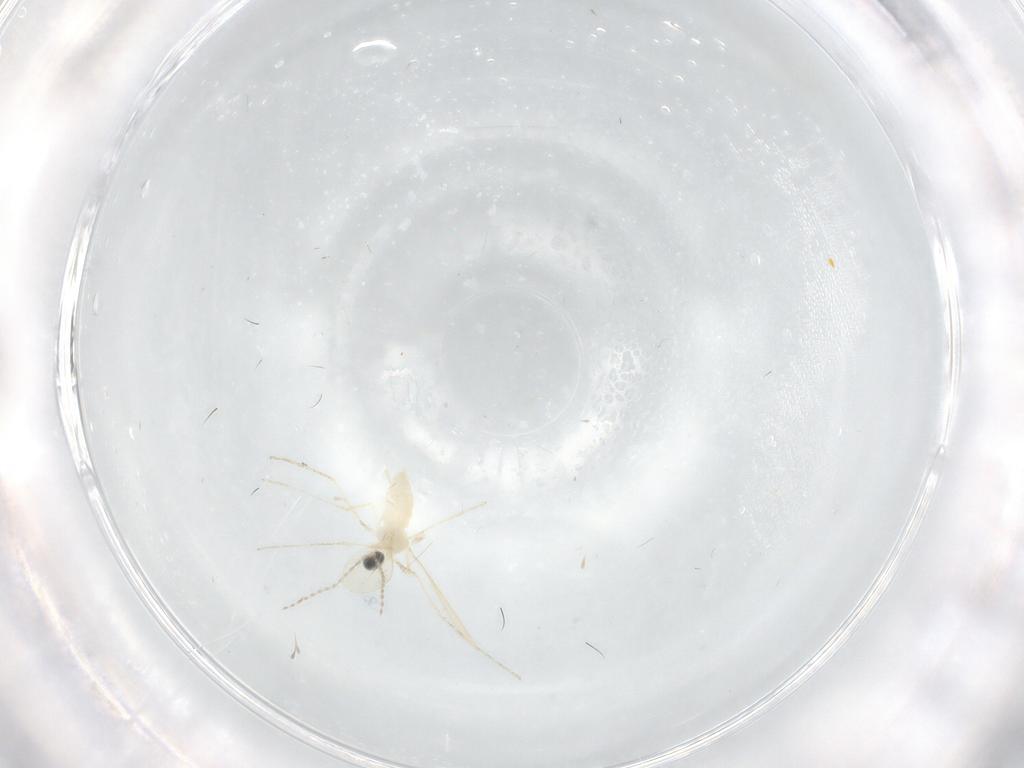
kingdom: Animalia
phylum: Arthropoda
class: Insecta
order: Diptera
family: Cecidomyiidae
